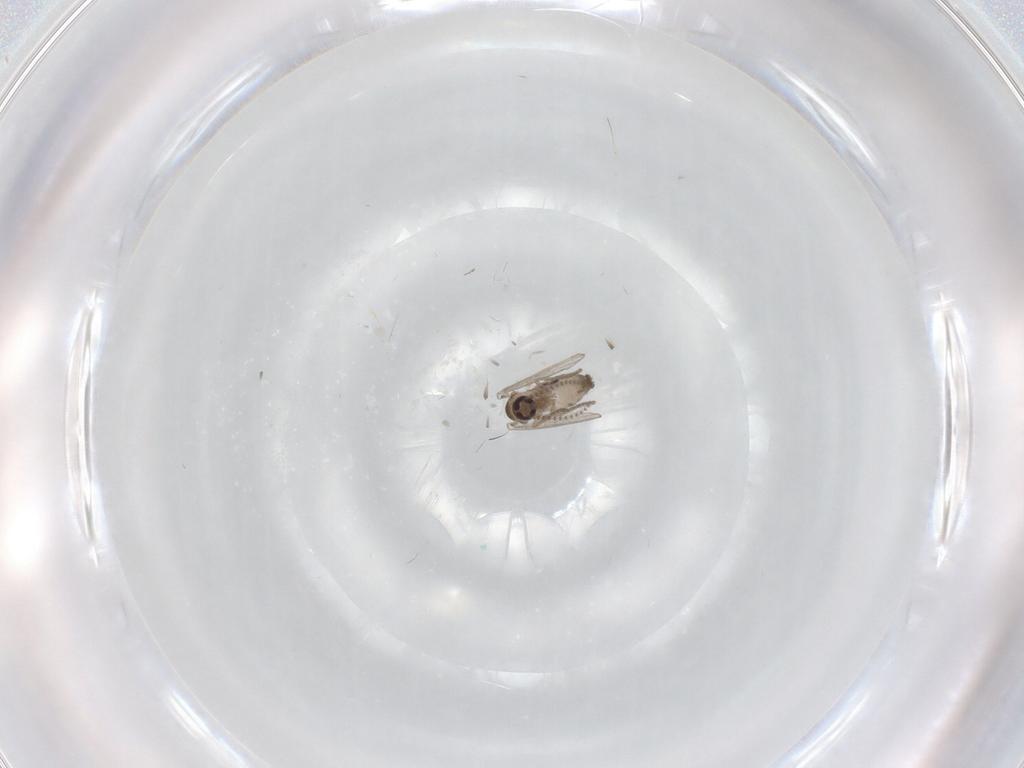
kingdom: Animalia
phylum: Arthropoda
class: Insecta
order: Diptera
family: Psychodidae
